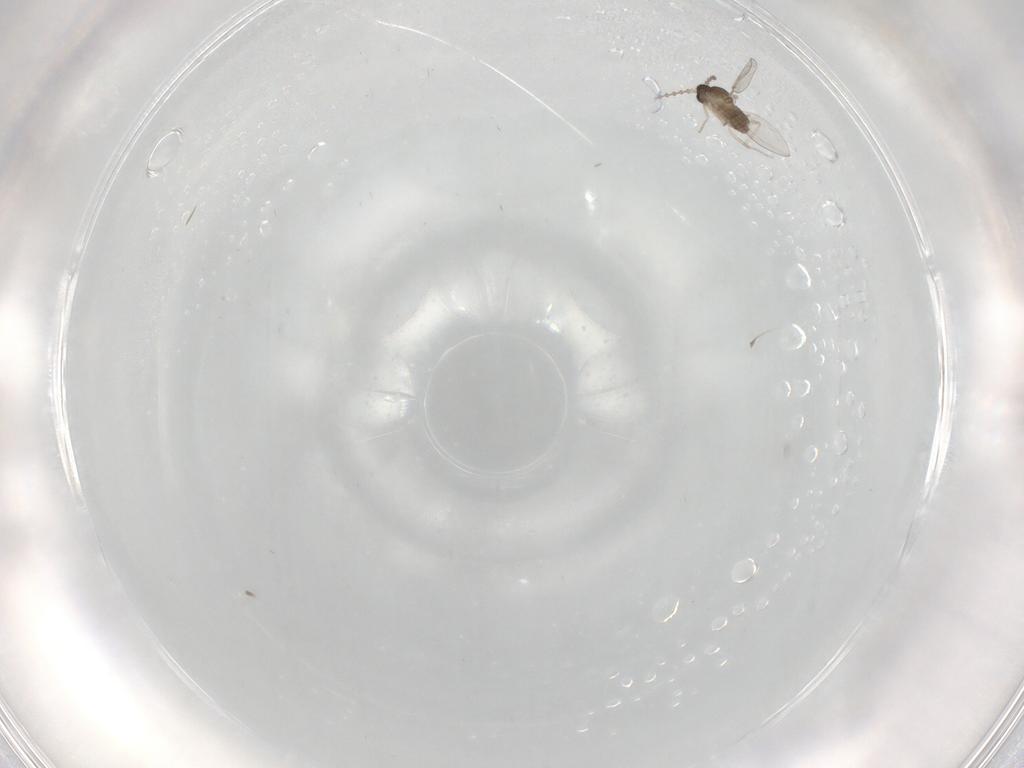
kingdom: Animalia
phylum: Arthropoda
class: Insecta
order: Diptera
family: Cecidomyiidae
